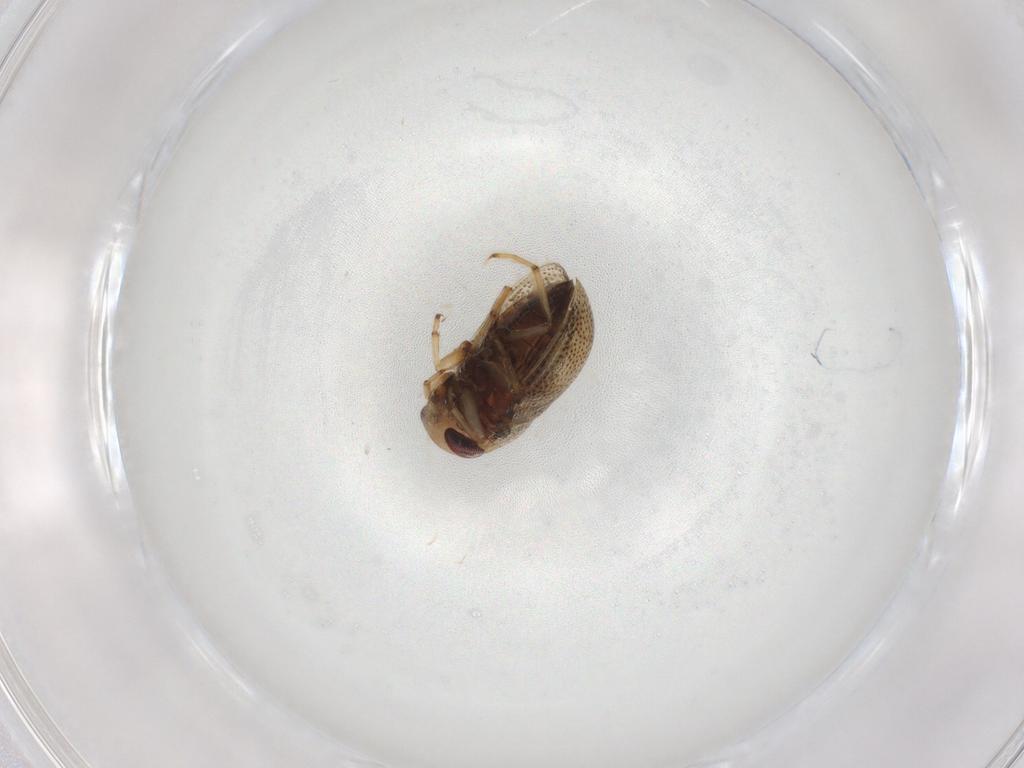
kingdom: Animalia
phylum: Arthropoda
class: Insecta
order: Hemiptera
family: Pleidae
